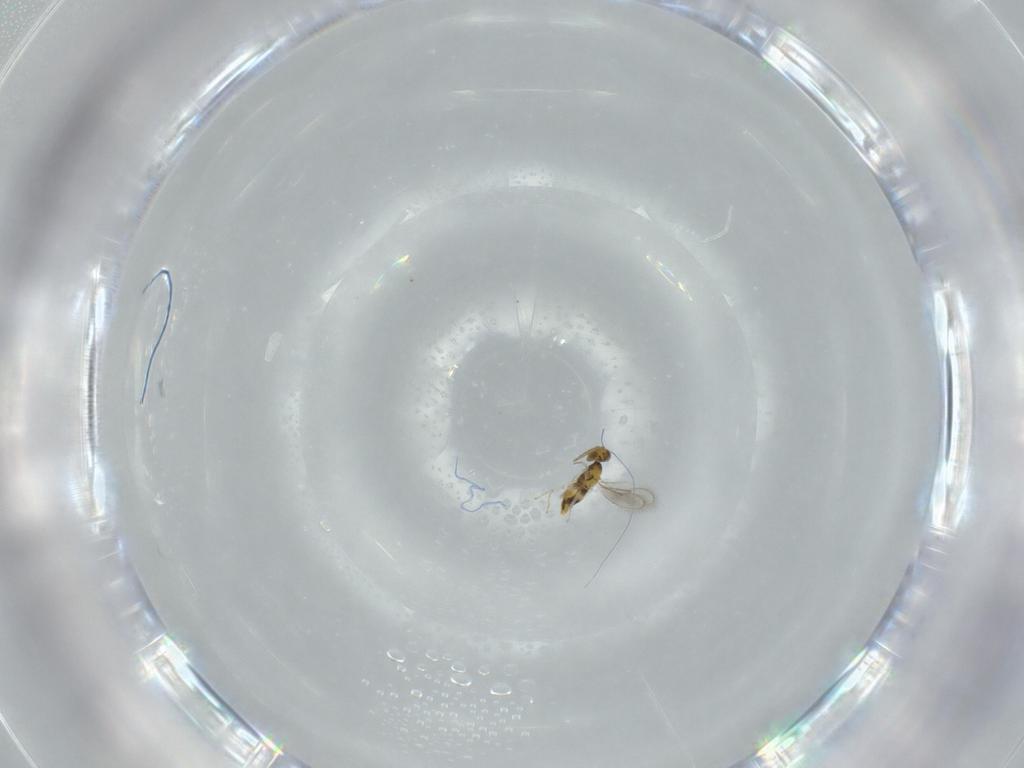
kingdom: Animalia
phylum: Arthropoda
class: Insecta
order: Hymenoptera
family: Aphelinidae
